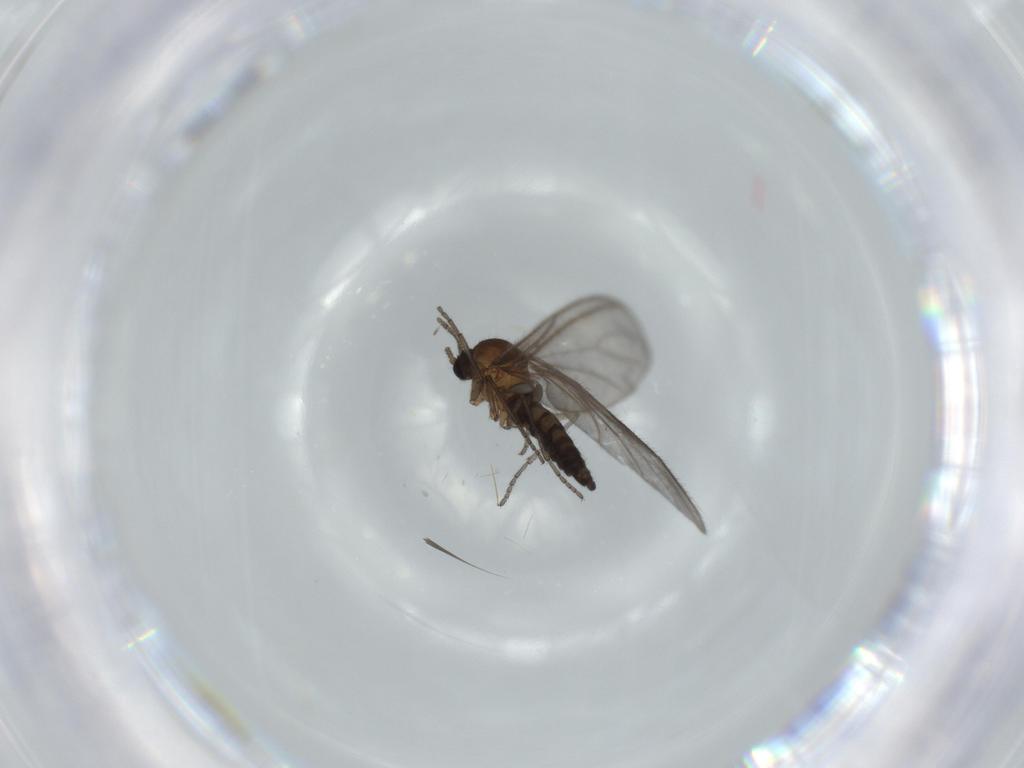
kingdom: Animalia
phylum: Arthropoda
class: Insecta
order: Diptera
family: Sciaridae
